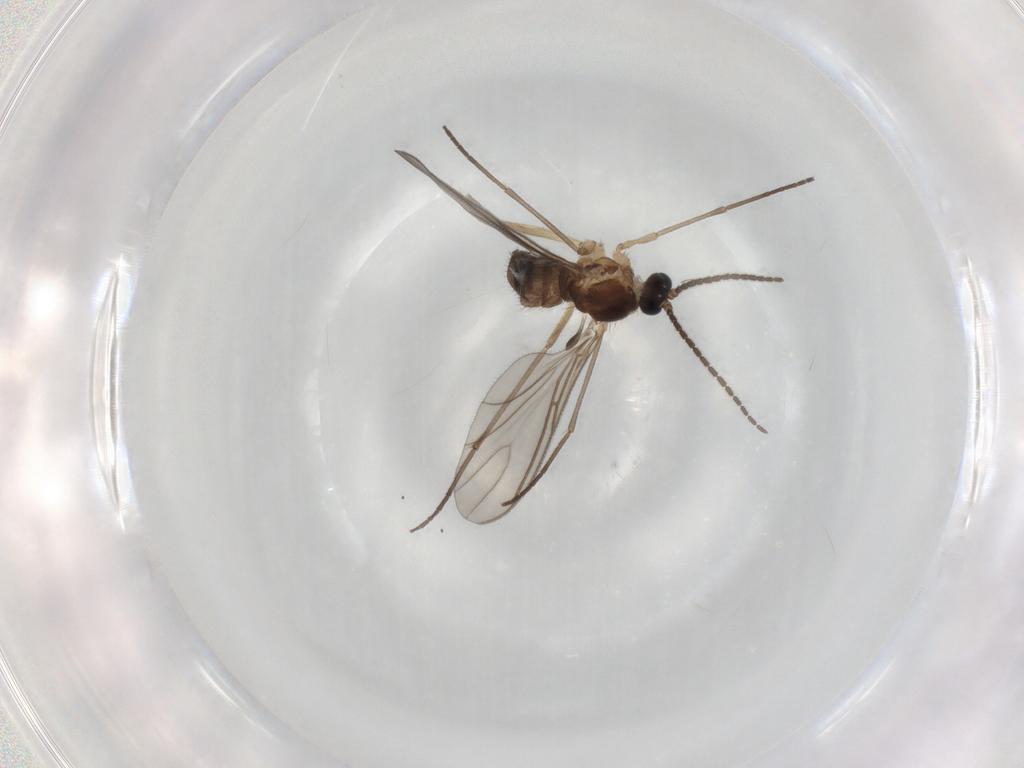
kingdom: Animalia
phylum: Arthropoda
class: Insecta
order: Diptera
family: Sciaridae
